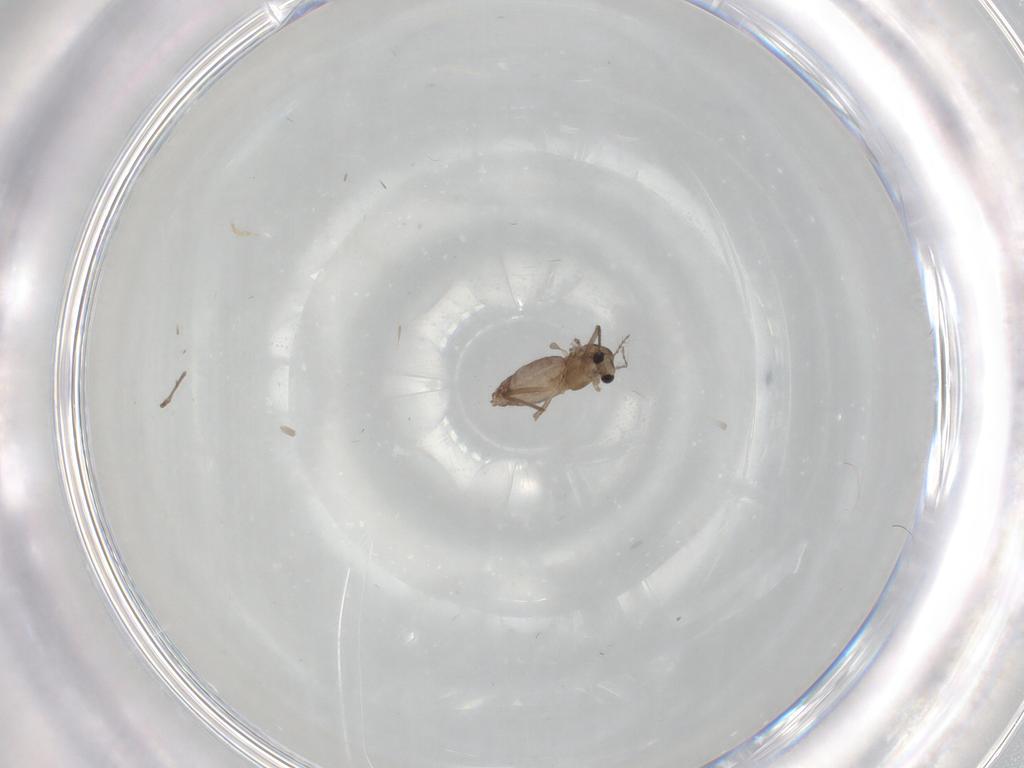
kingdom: Animalia
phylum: Arthropoda
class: Insecta
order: Diptera
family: Chironomidae
